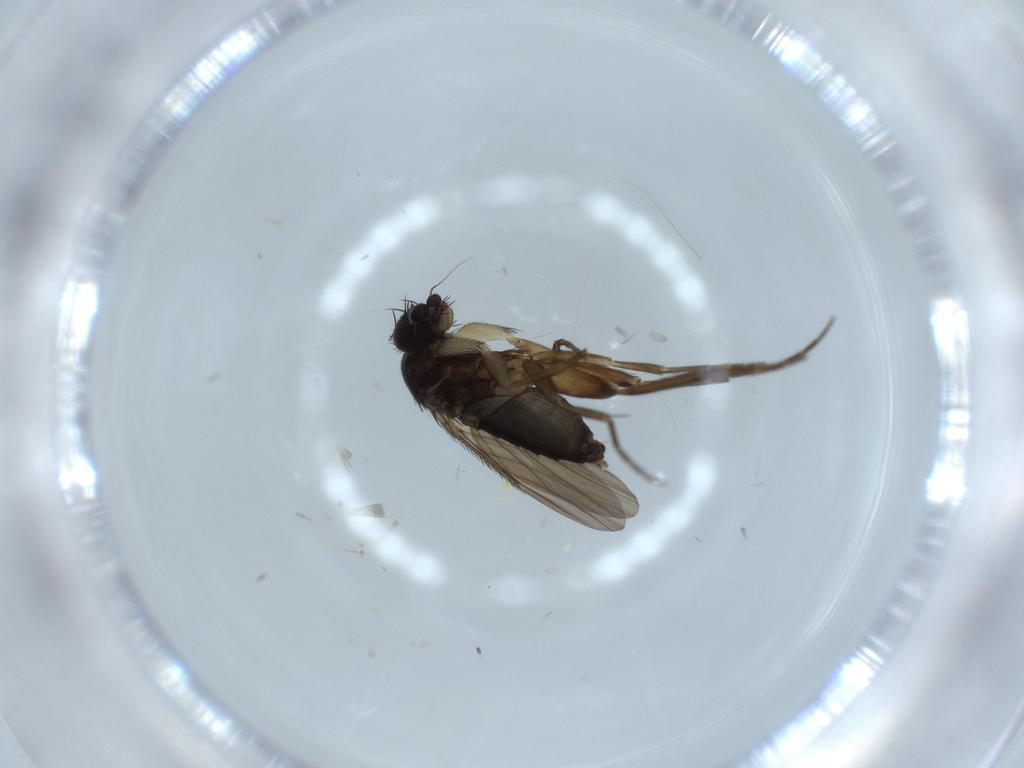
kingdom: Animalia
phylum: Arthropoda
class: Insecta
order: Diptera
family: Phoridae
